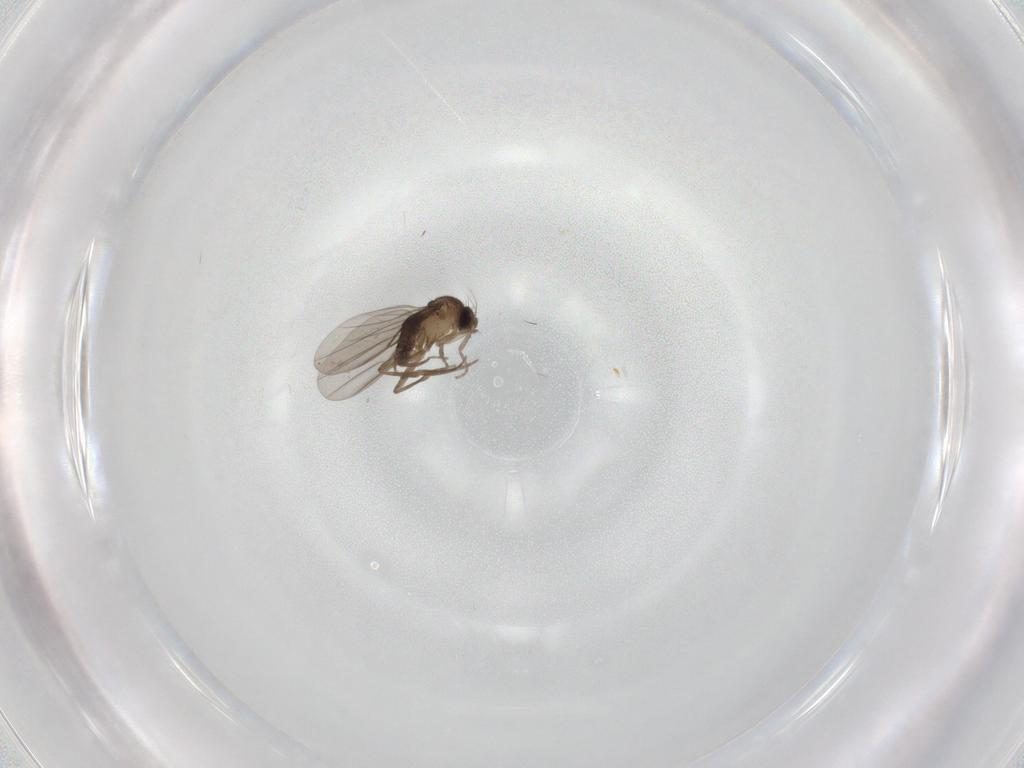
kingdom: Animalia
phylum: Arthropoda
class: Insecta
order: Diptera
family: Phoridae
